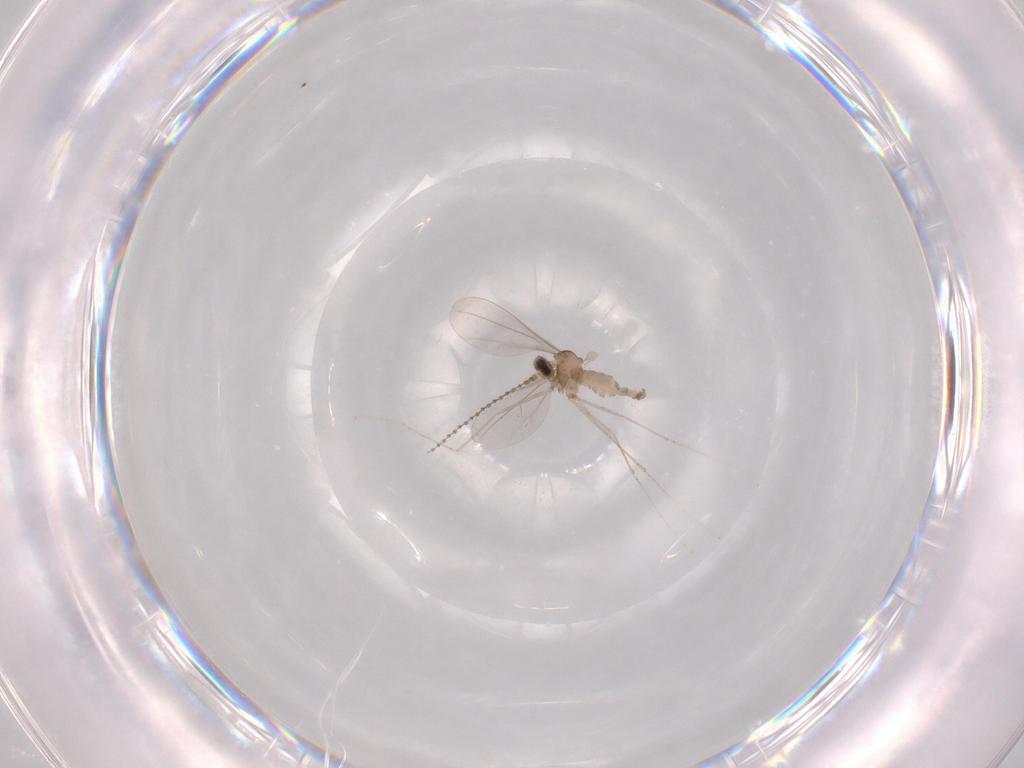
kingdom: Animalia
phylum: Arthropoda
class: Insecta
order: Diptera
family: Cecidomyiidae
